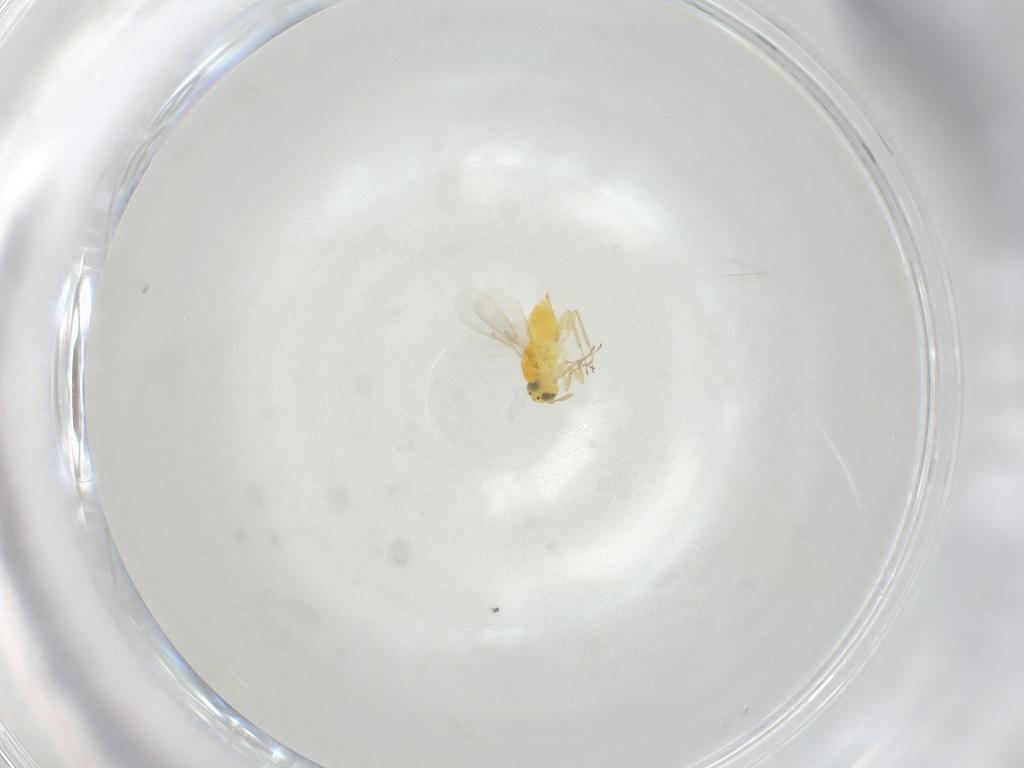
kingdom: Animalia
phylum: Arthropoda
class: Insecta
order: Hymenoptera
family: Aphelinidae
